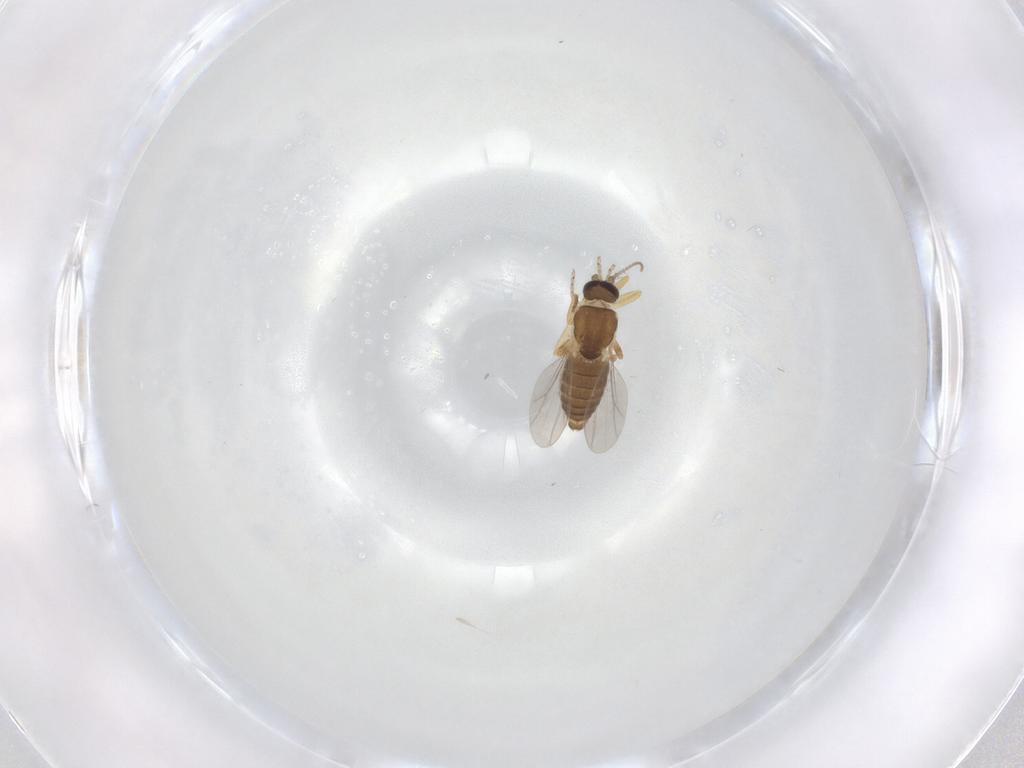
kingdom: Animalia
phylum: Arthropoda
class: Insecta
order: Diptera
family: Ceratopogonidae
